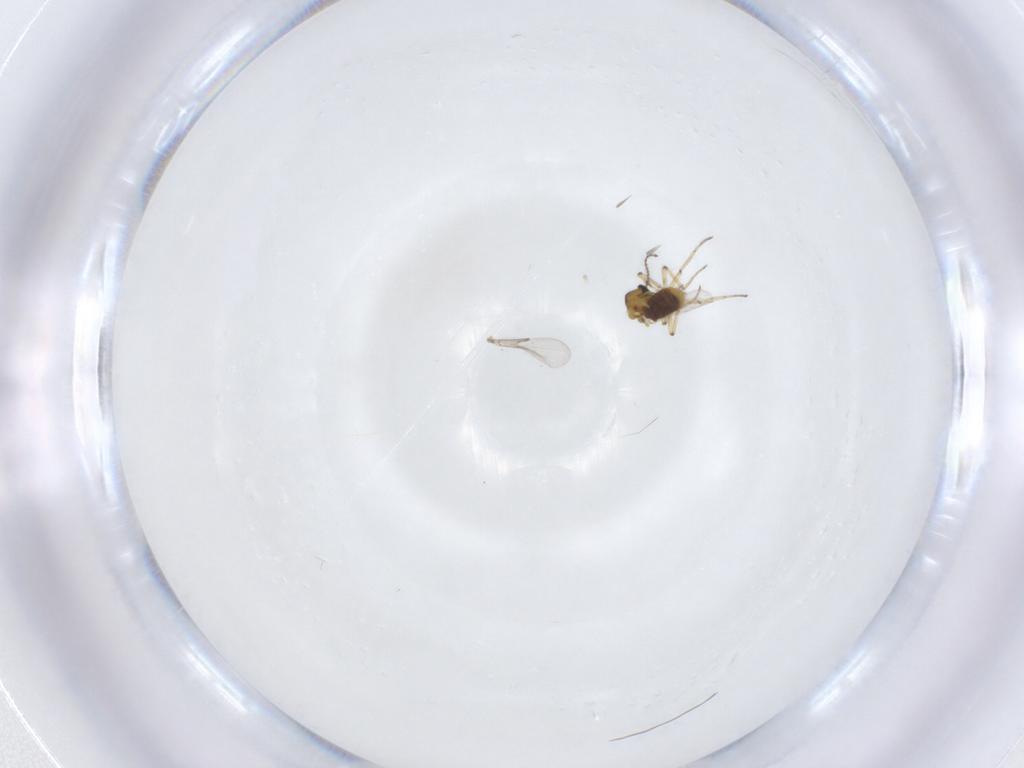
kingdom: Animalia
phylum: Arthropoda
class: Insecta
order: Diptera
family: Ceratopogonidae
